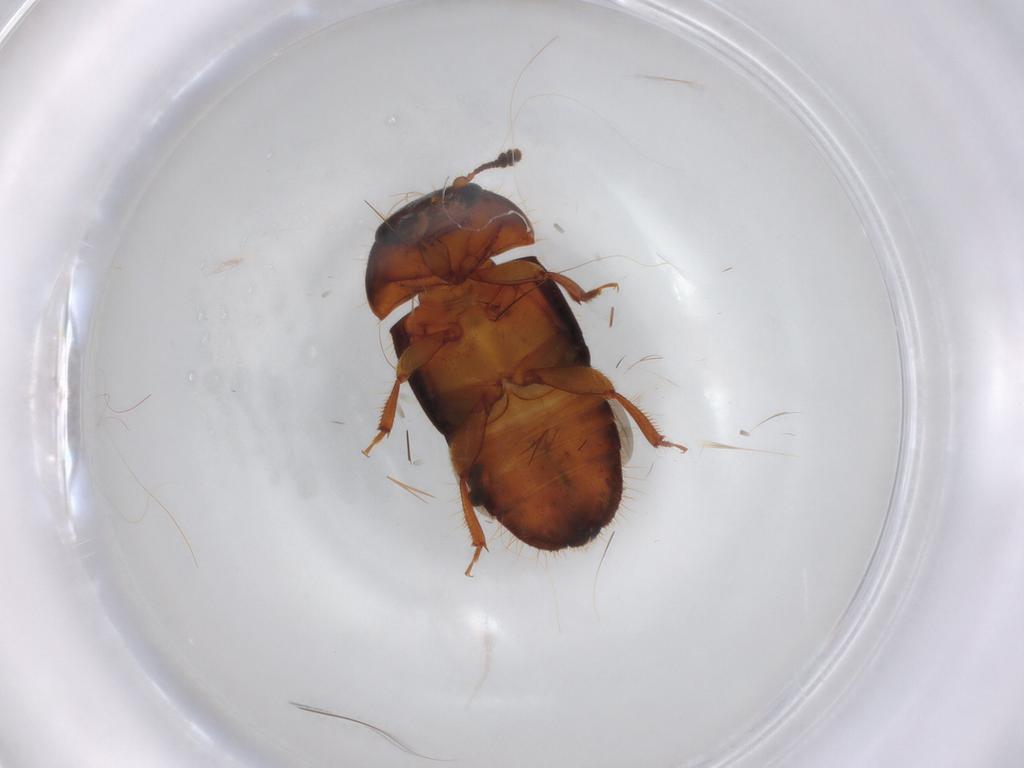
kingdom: Animalia
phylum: Arthropoda
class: Insecta
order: Coleoptera
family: Nitidulidae
